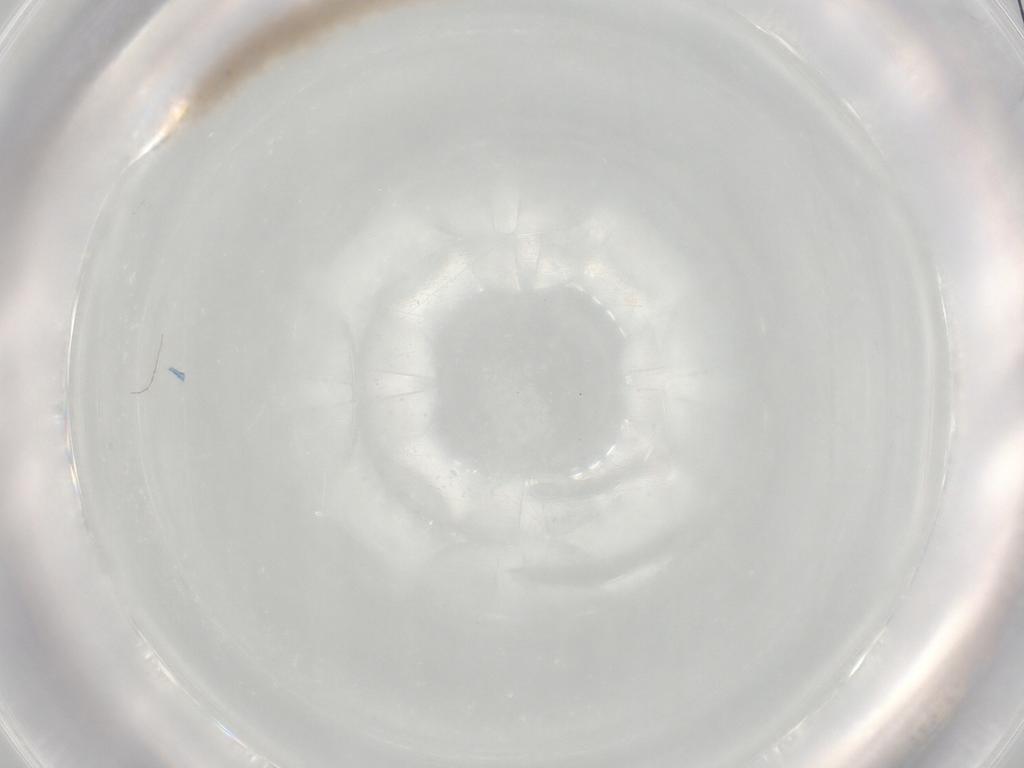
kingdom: Animalia
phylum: Arthropoda
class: Insecta
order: Diptera
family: Ceratopogonidae
